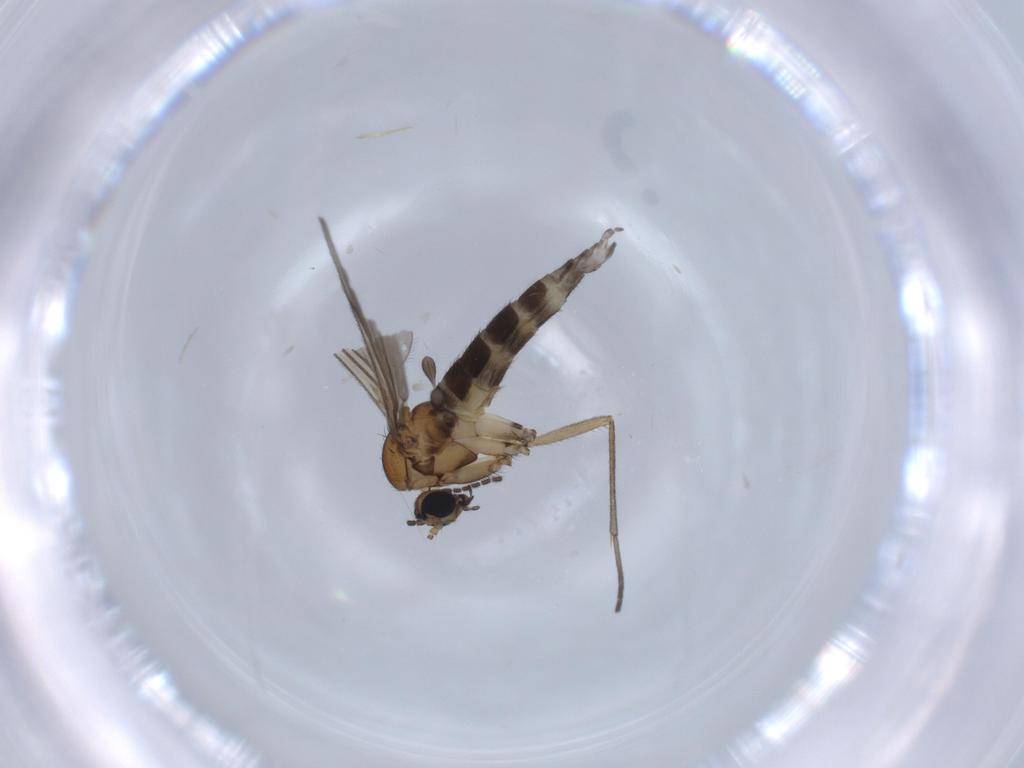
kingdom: Animalia
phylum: Arthropoda
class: Insecta
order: Diptera
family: Sciaridae
